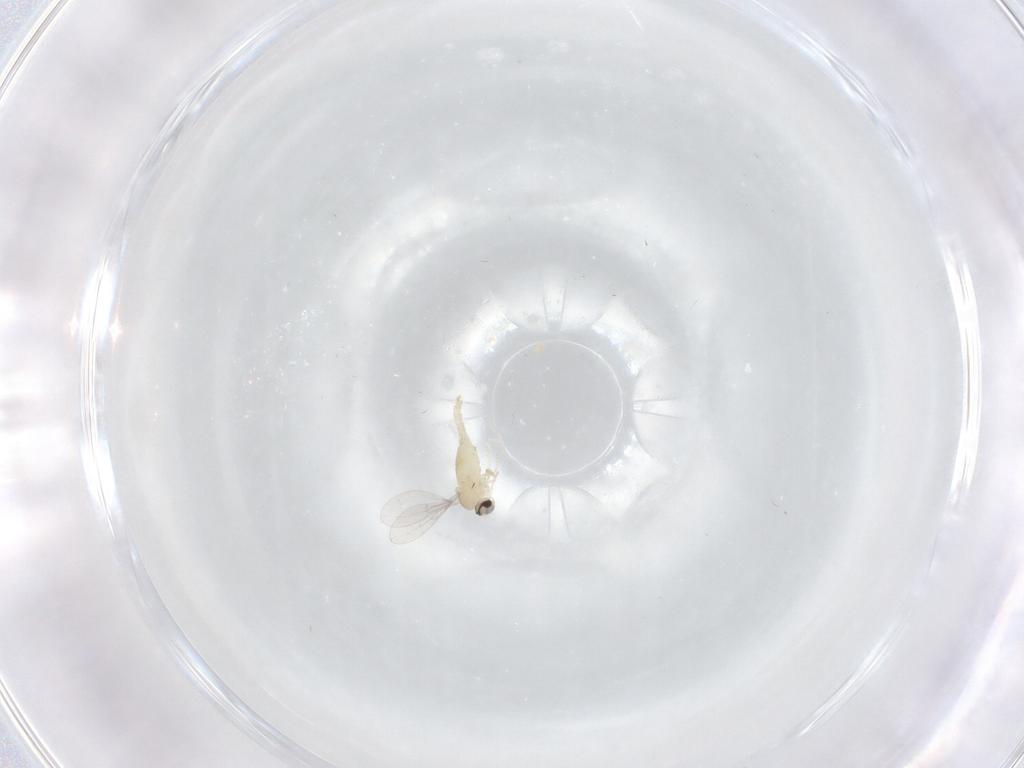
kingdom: Animalia
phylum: Arthropoda
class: Insecta
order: Diptera
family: Cecidomyiidae
